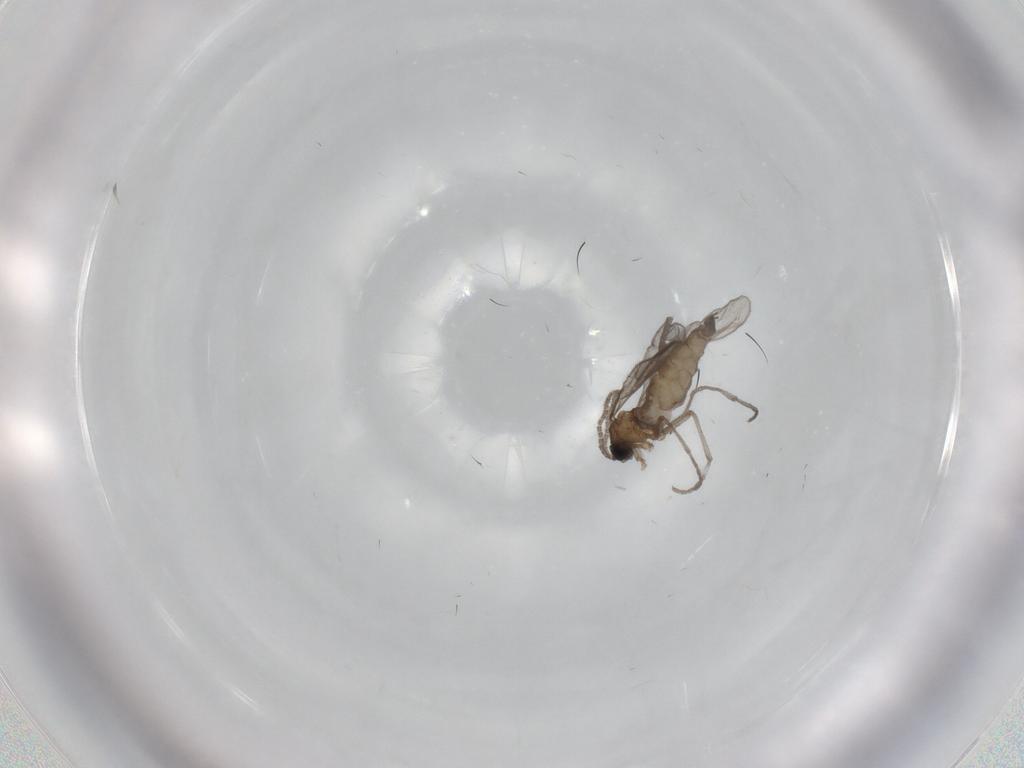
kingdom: Animalia
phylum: Arthropoda
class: Insecta
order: Diptera
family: Sciaridae
